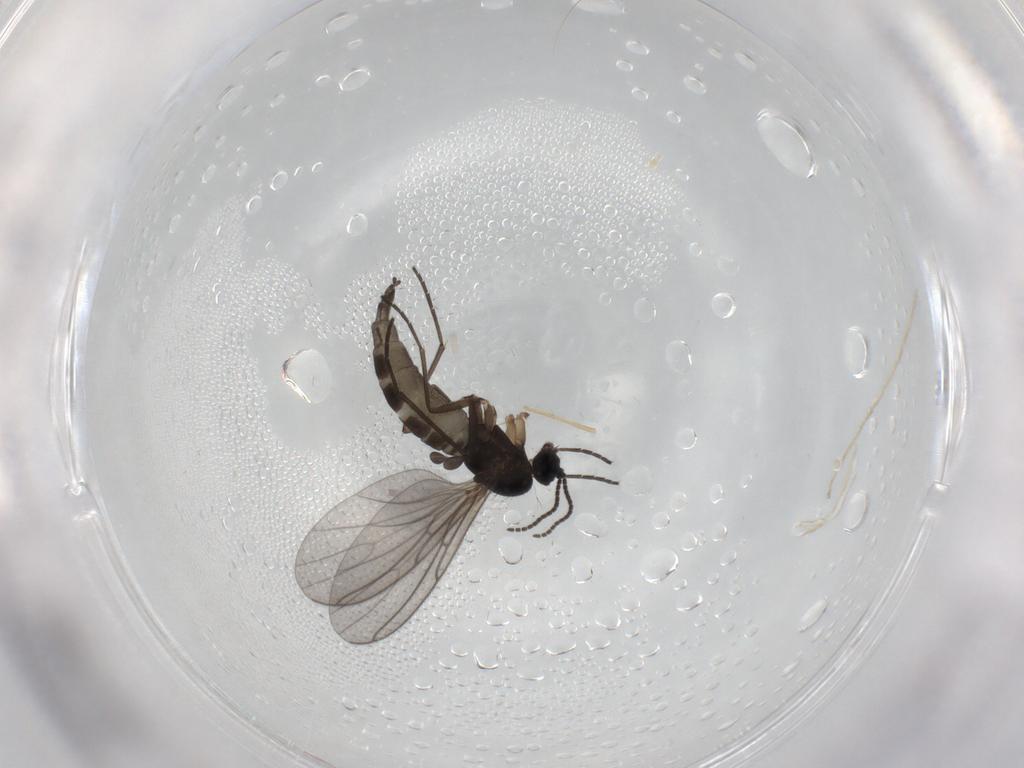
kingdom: Animalia
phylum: Arthropoda
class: Insecta
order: Diptera
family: Sciaridae
